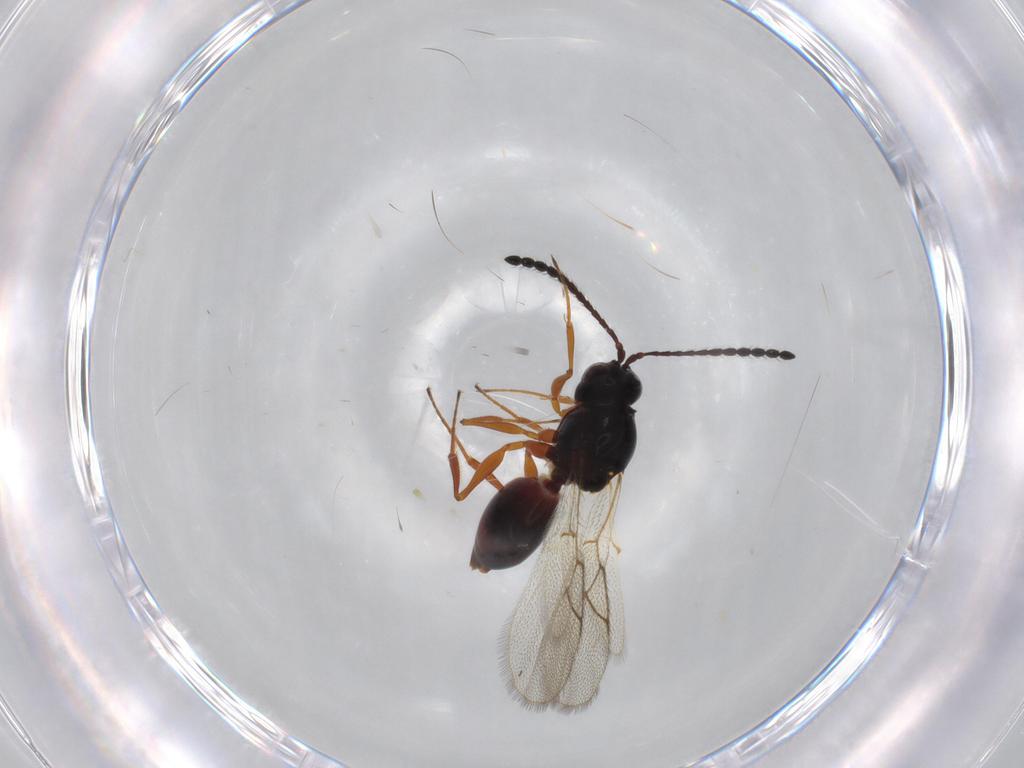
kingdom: Animalia
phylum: Arthropoda
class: Insecta
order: Hymenoptera
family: Figitidae
